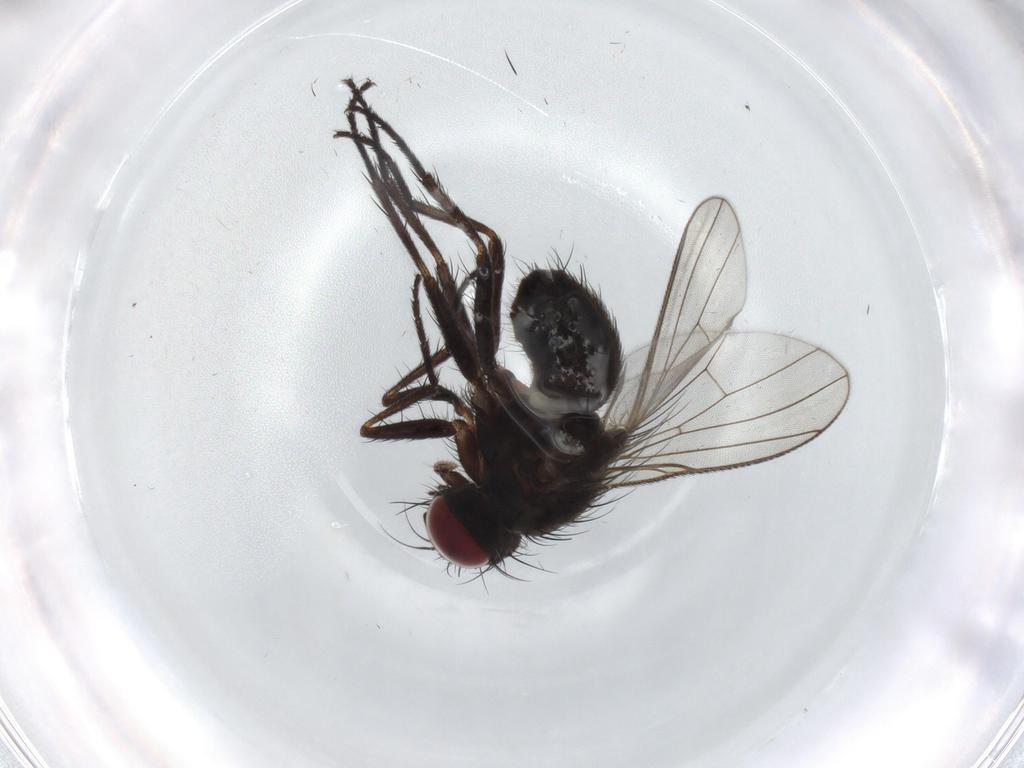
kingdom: Animalia
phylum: Arthropoda
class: Insecta
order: Diptera
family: Muscidae
